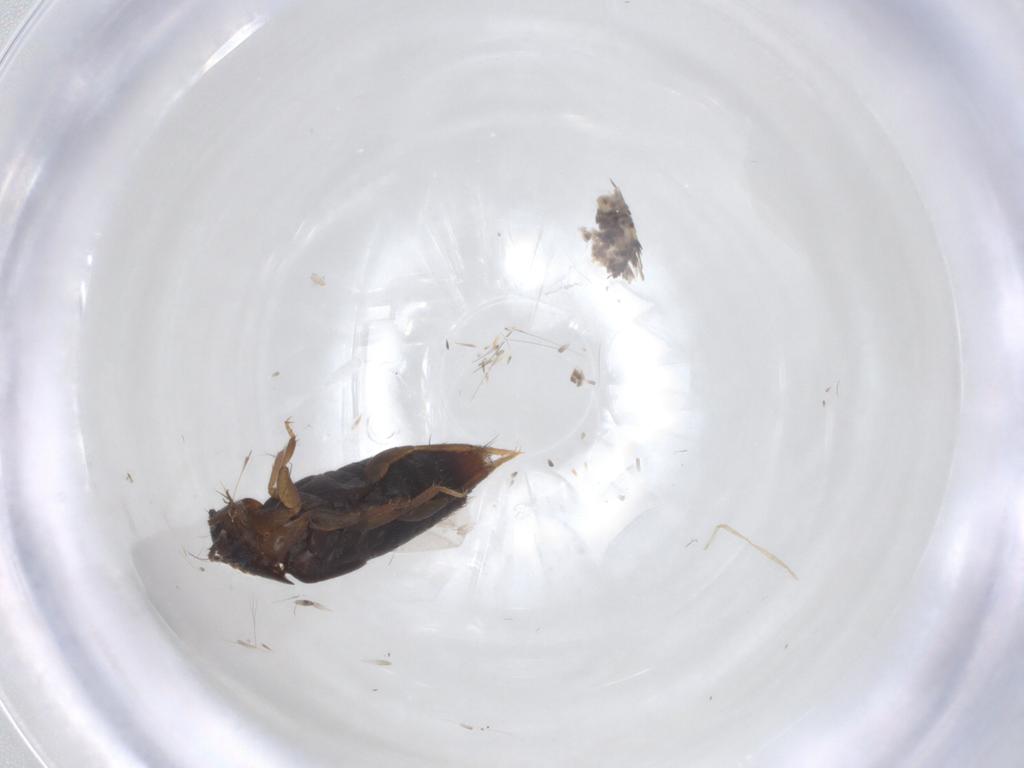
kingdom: Animalia
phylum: Arthropoda
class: Insecta
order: Coleoptera
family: Staphylinidae
